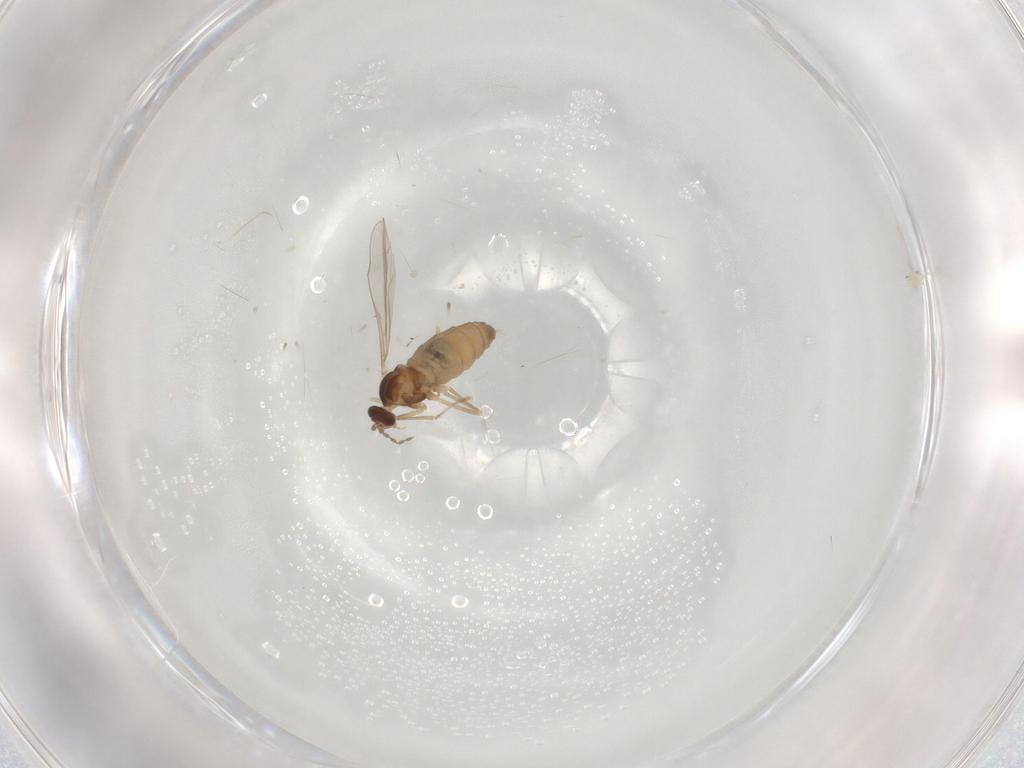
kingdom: Animalia
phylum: Arthropoda
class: Insecta
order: Diptera
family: Cecidomyiidae
